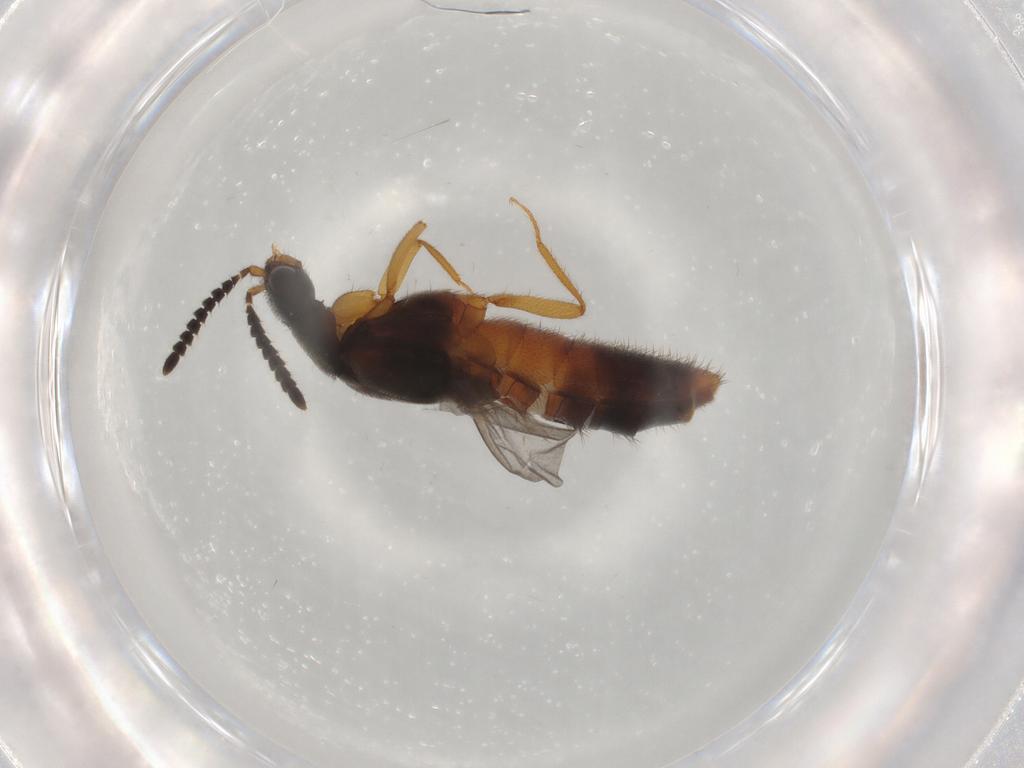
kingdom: Animalia
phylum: Arthropoda
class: Insecta
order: Coleoptera
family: Staphylinidae
